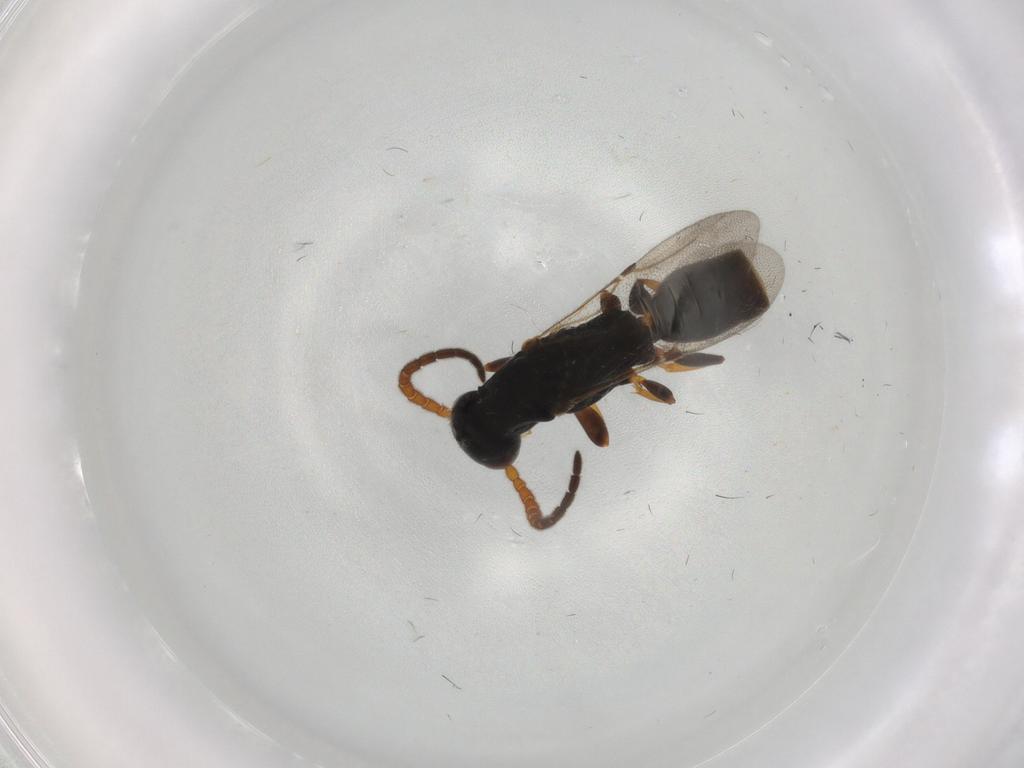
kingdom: Animalia
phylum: Arthropoda
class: Insecta
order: Hymenoptera
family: Bethylidae
